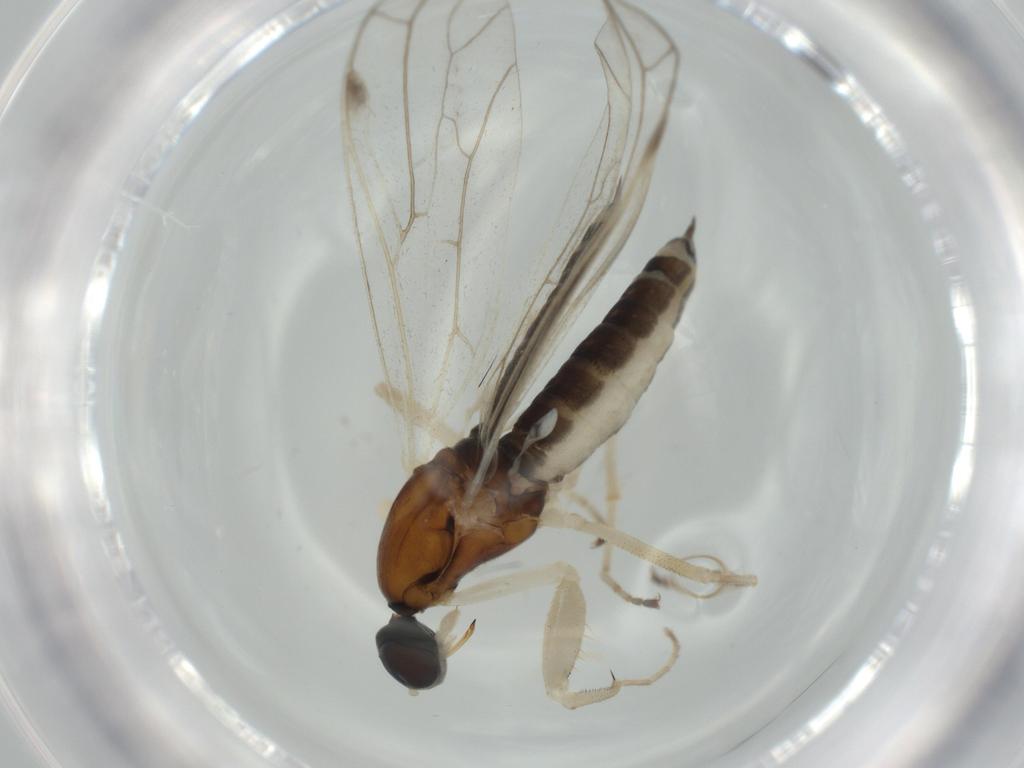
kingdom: Animalia
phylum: Arthropoda
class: Insecta
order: Diptera
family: Empididae
